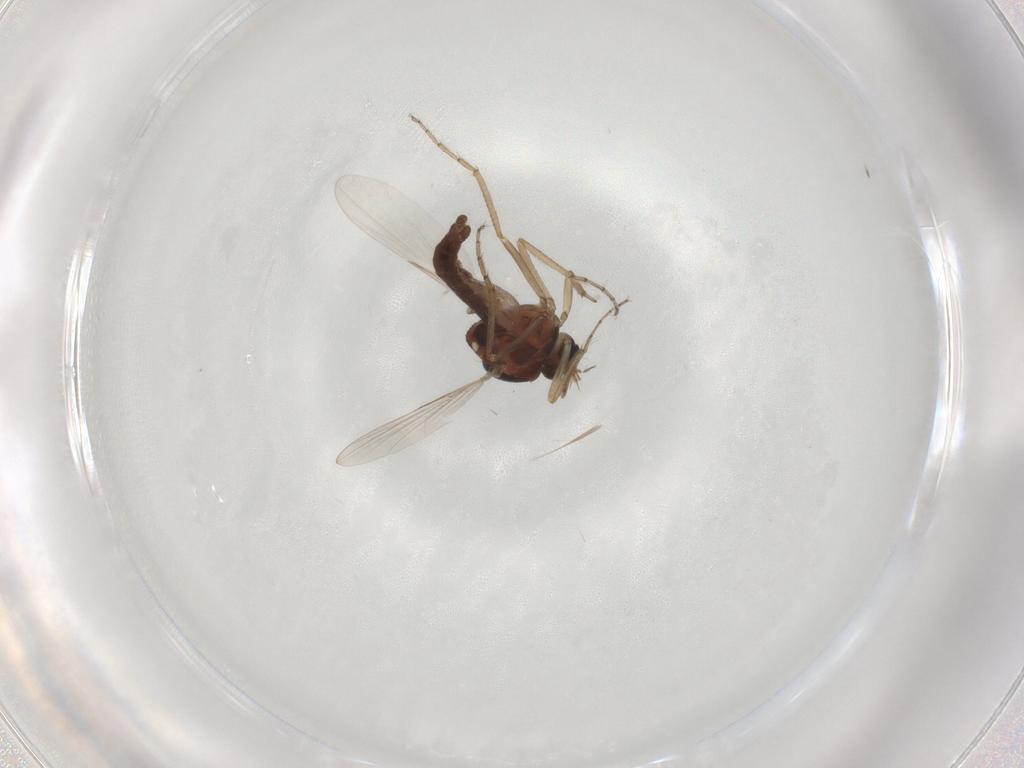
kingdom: Animalia
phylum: Arthropoda
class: Insecta
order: Diptera
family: Ceratopogonidae
